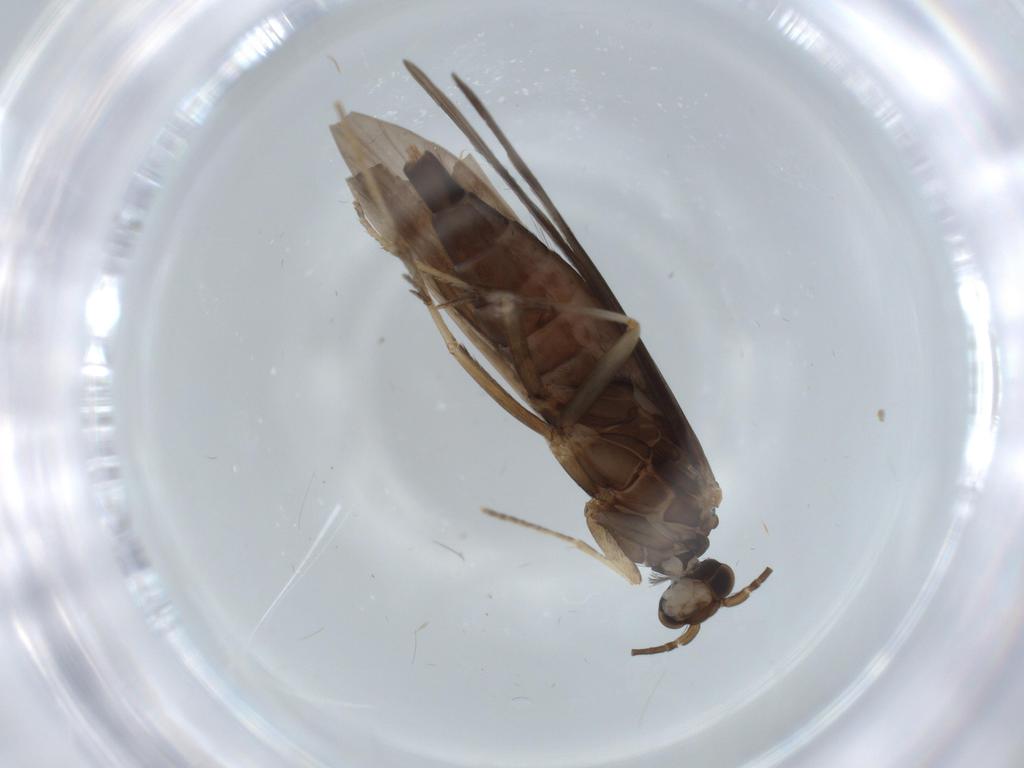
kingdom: Animalia
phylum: Arthropoda
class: Insecta
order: Trichoptera
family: Xiphocentronidae
